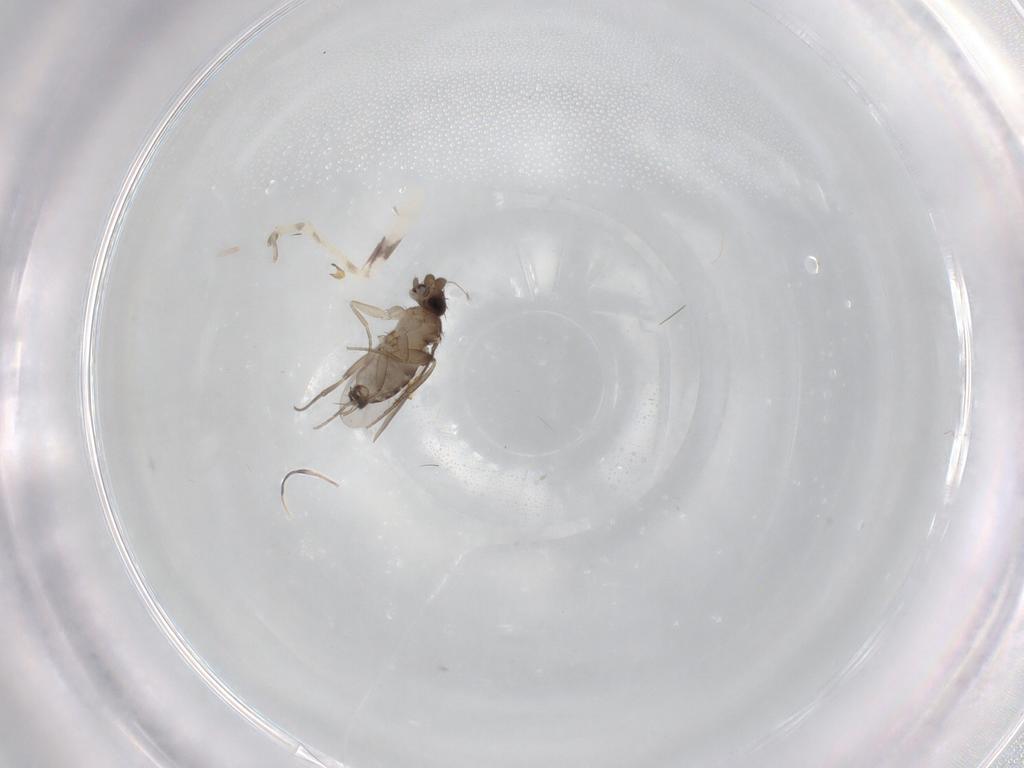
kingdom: Animalia
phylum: Arthropoda
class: Insecta
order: Diptera
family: Phoridae
